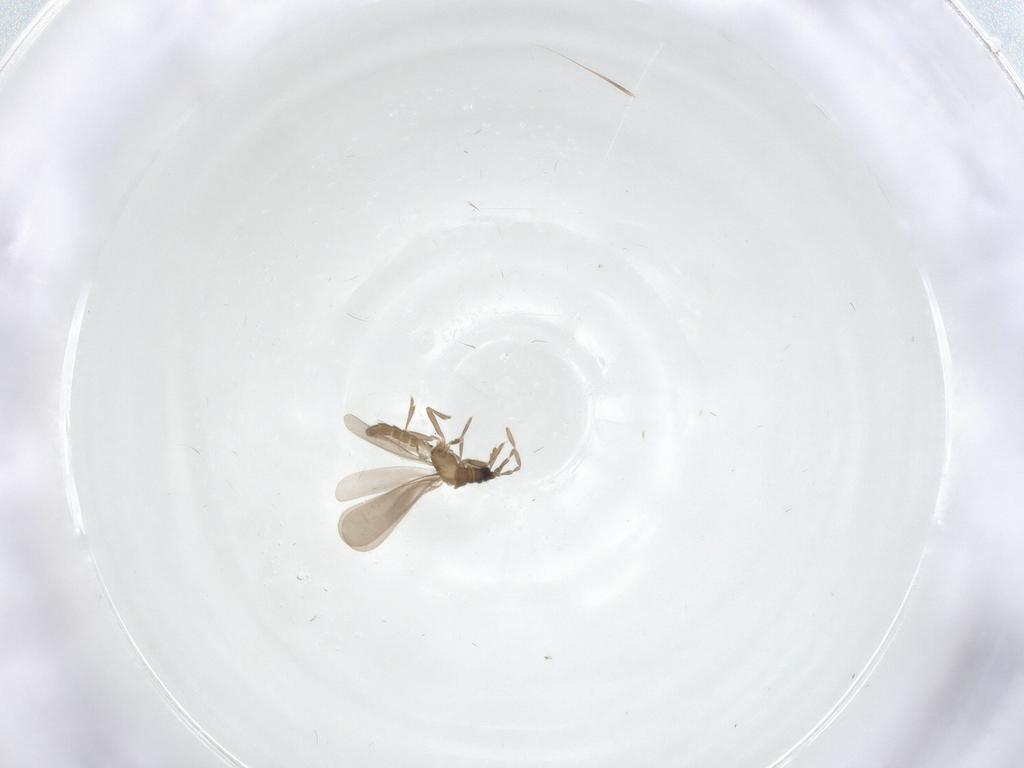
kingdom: Animalia
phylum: Arthropoda
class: Insecta
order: Hemiptera
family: Enicocephalidae
